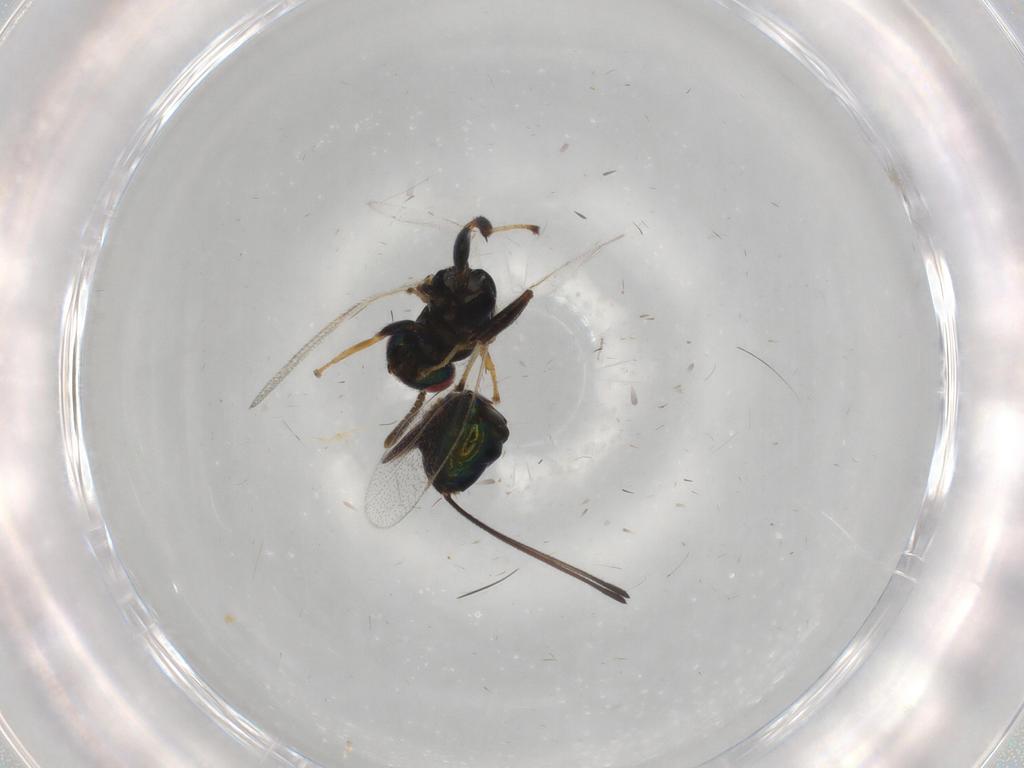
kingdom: Animalia
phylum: Arthropoda
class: Insecta
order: Hymenoptera
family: Torymidae
